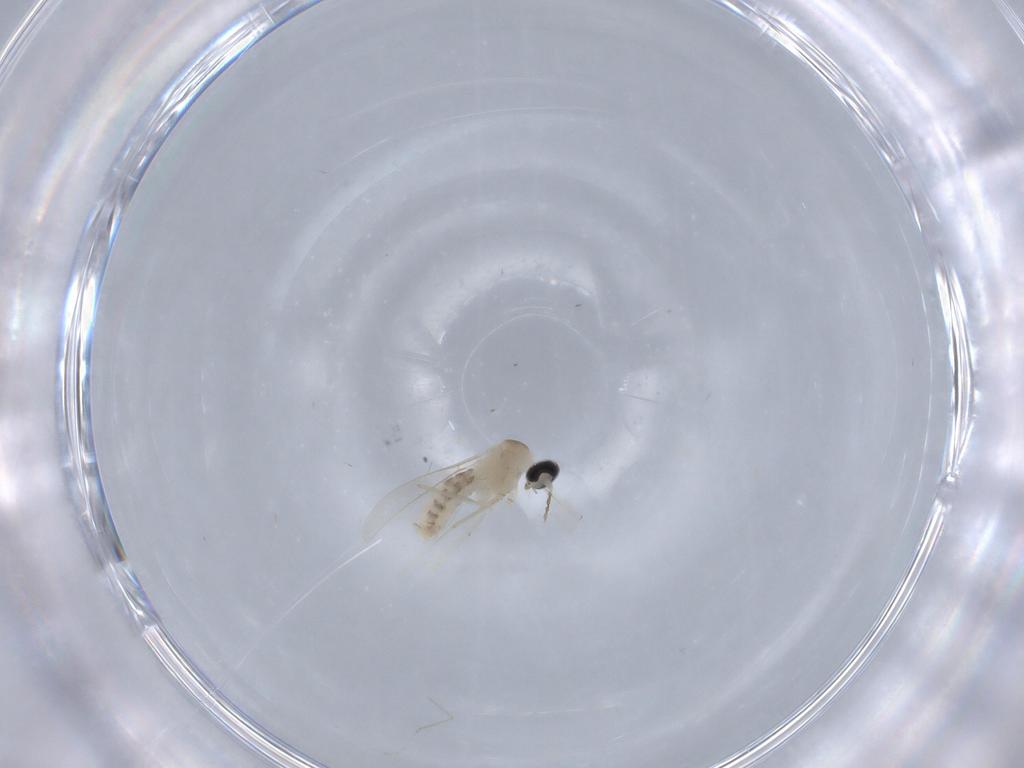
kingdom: Animalia
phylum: Arthropoda
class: Insecta
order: Diptera
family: Cecidomyiidae
